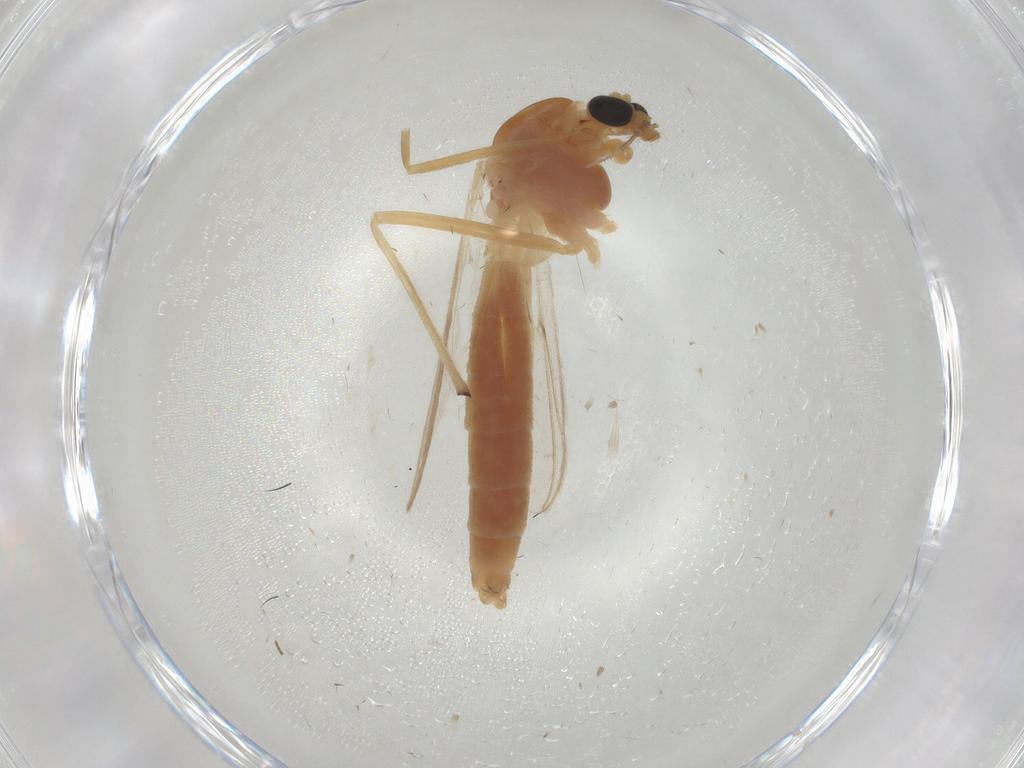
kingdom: Animalia
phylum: Arthropoda
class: Insecta
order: Diptera
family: Chironomidae
